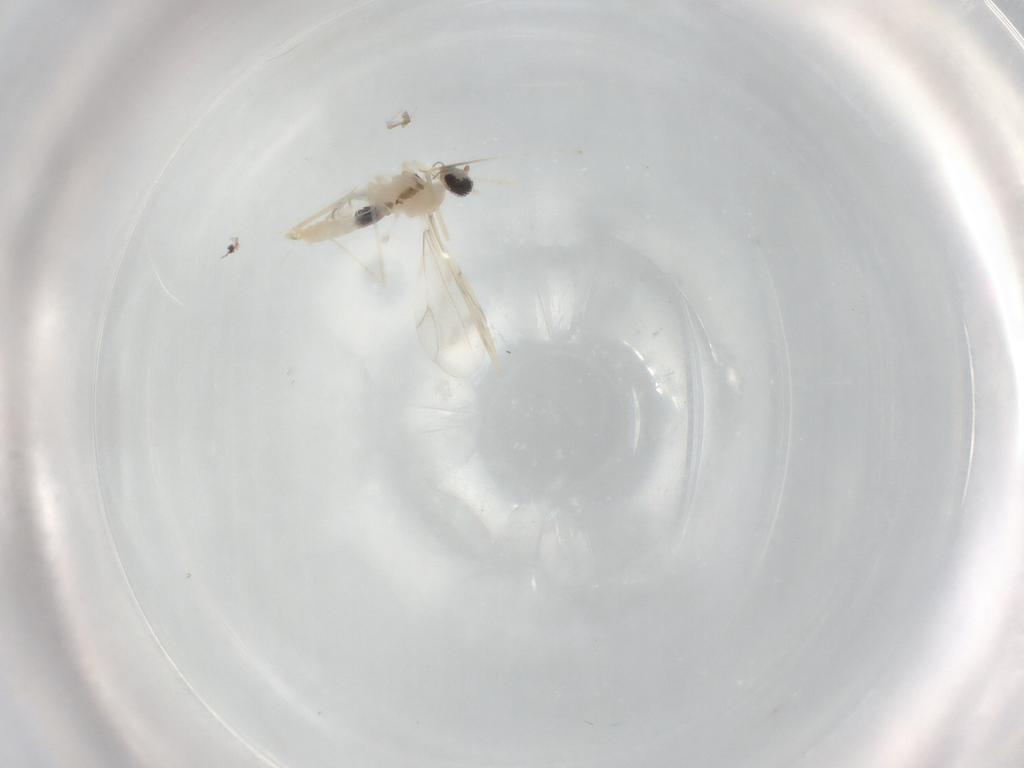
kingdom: Animalia
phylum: Arthropoda
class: Insecta
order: Diptera
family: Cecidomyiidae
